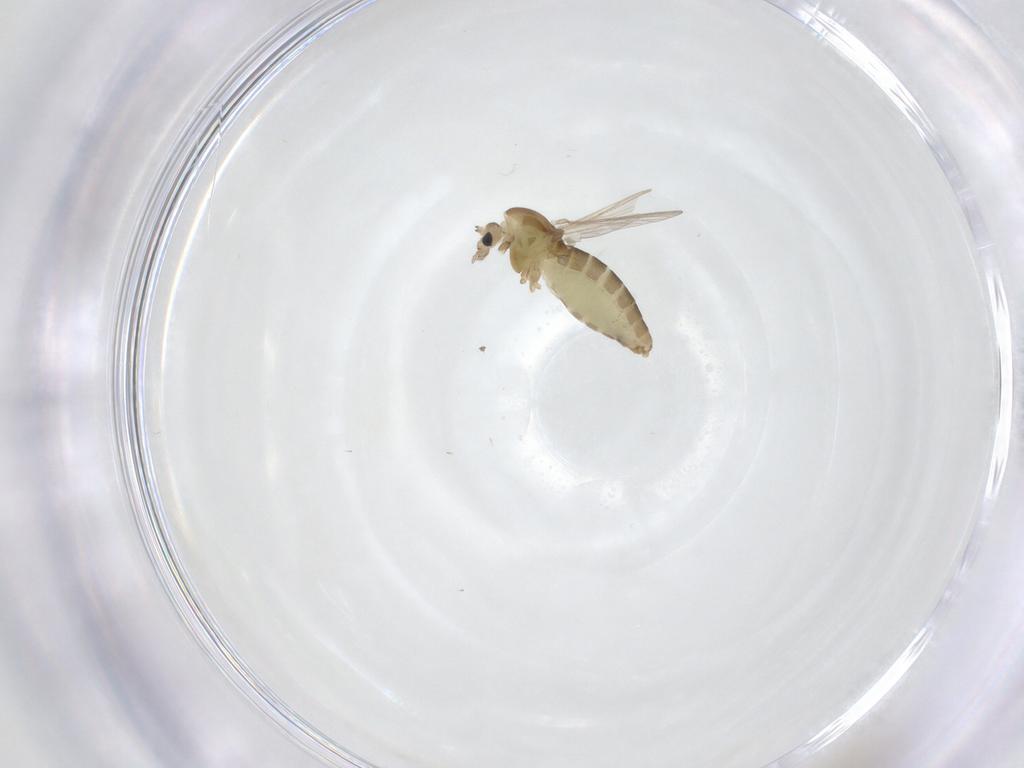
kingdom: Animalia
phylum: Arthropoda
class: Insecta
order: Diptera
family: Chironomidae
